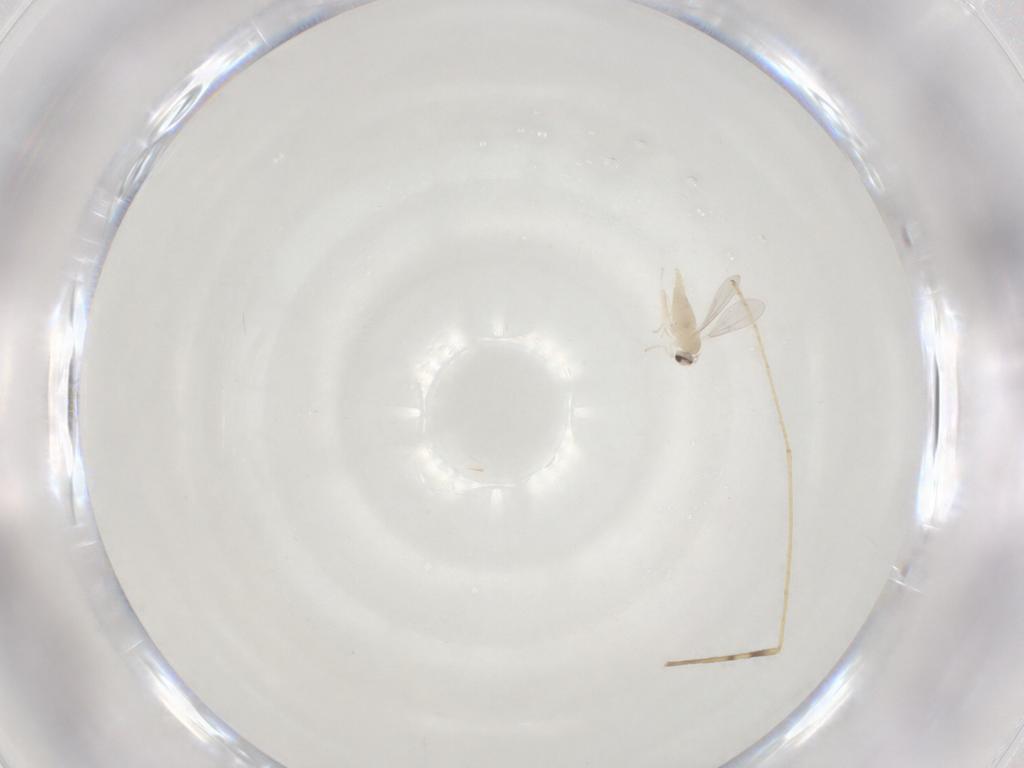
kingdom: Animalia
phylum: Arthropoda
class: Insecta
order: Diptera
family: Cecidomyiidae
